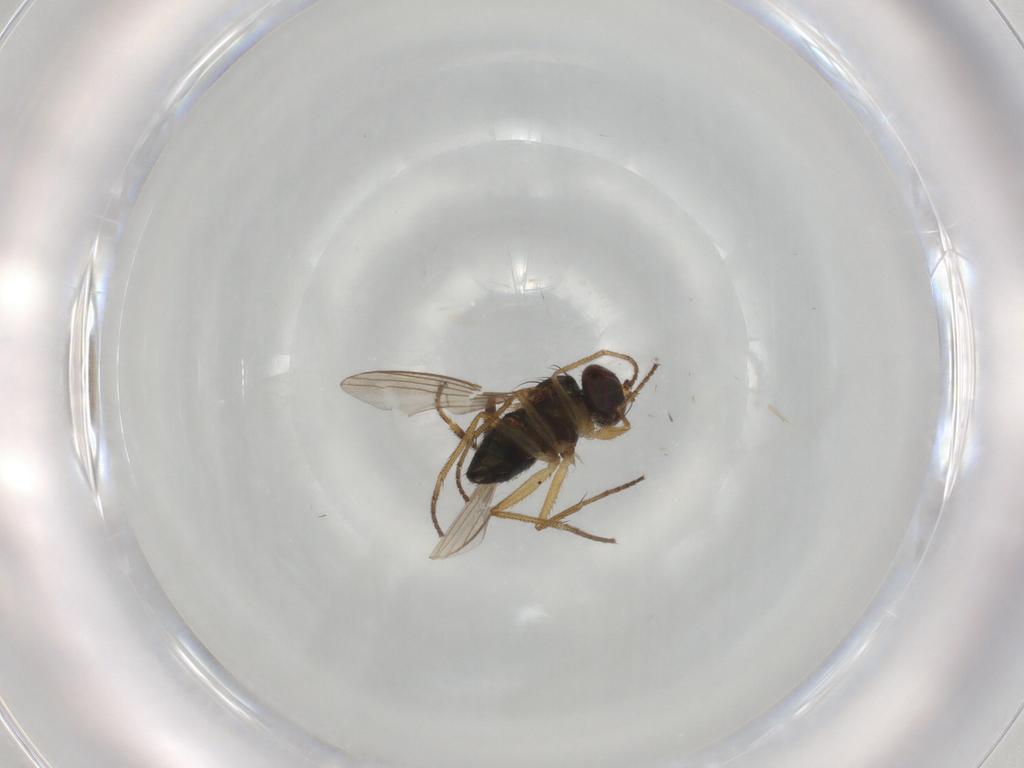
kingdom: Animalia
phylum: Arthropoda
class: Insecta
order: Diptera
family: Dolichopodidae
